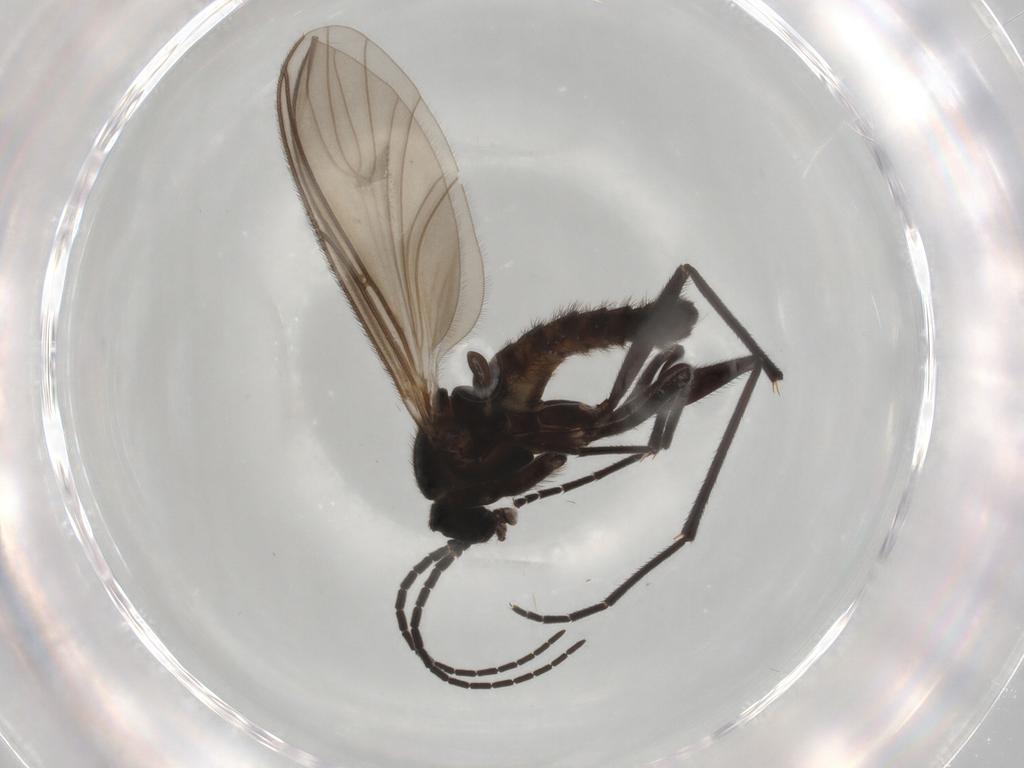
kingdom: Animalia
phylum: Arthropoda
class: Insecta
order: Diptera
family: Sciaridae
